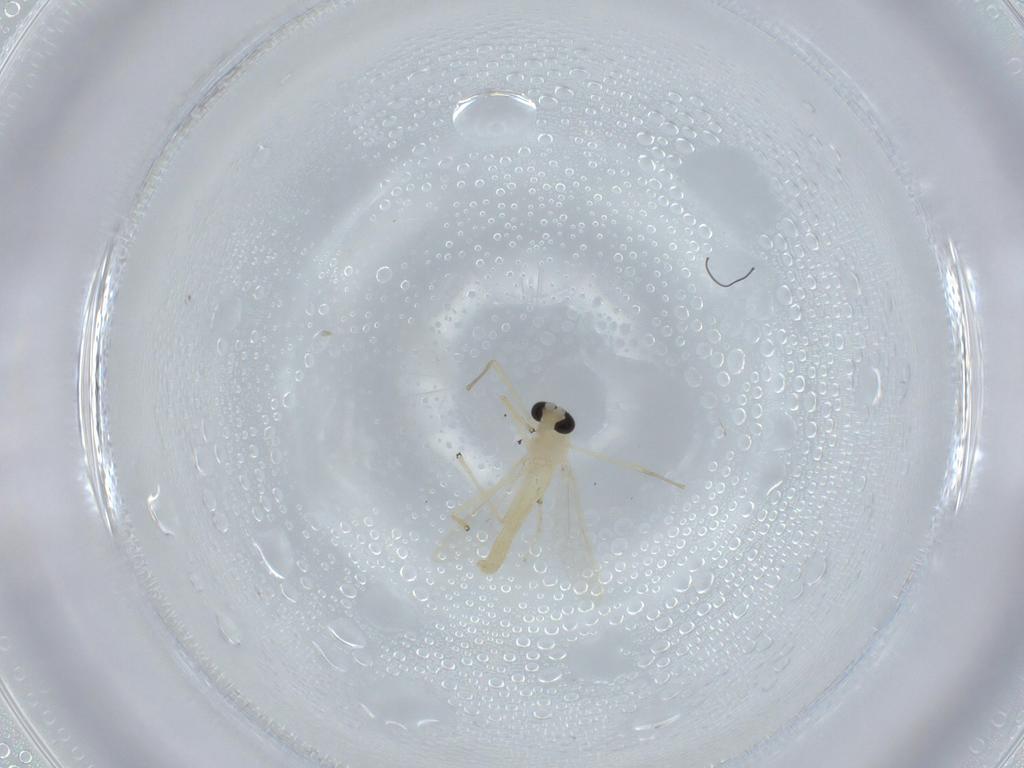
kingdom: Animalia
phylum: Arthropoda
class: Insecta
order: Diptera
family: Chironomidae
